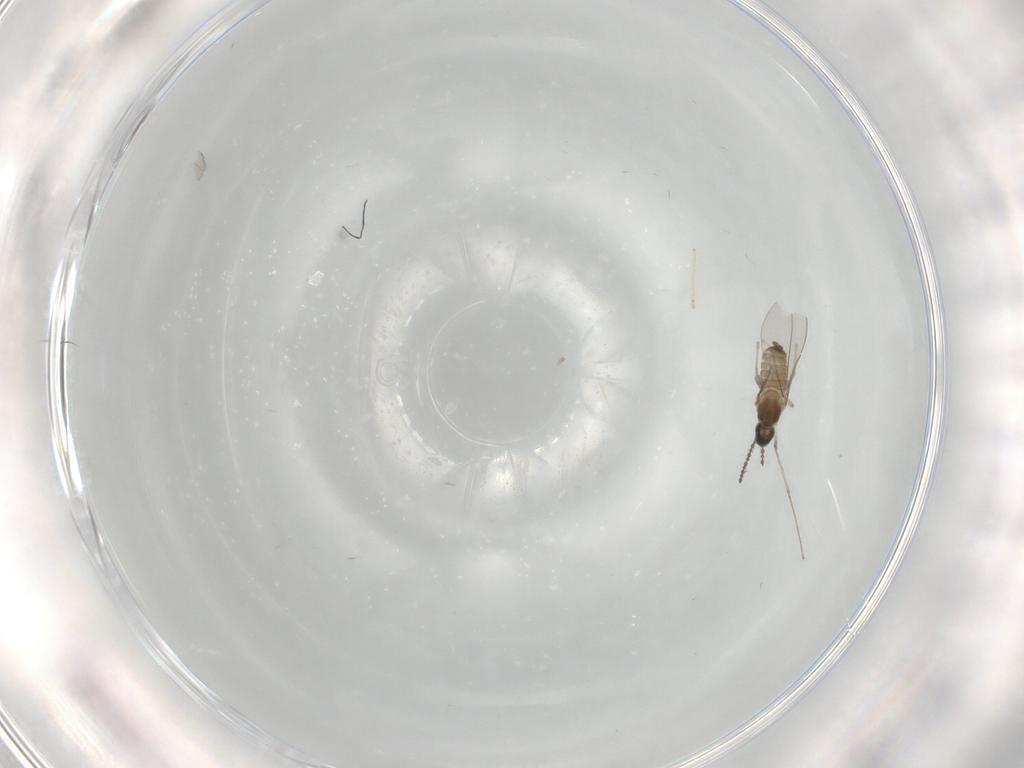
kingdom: Animalia
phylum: Arthropoda
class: Insecta
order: Diptera
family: Cecidomyiidae
